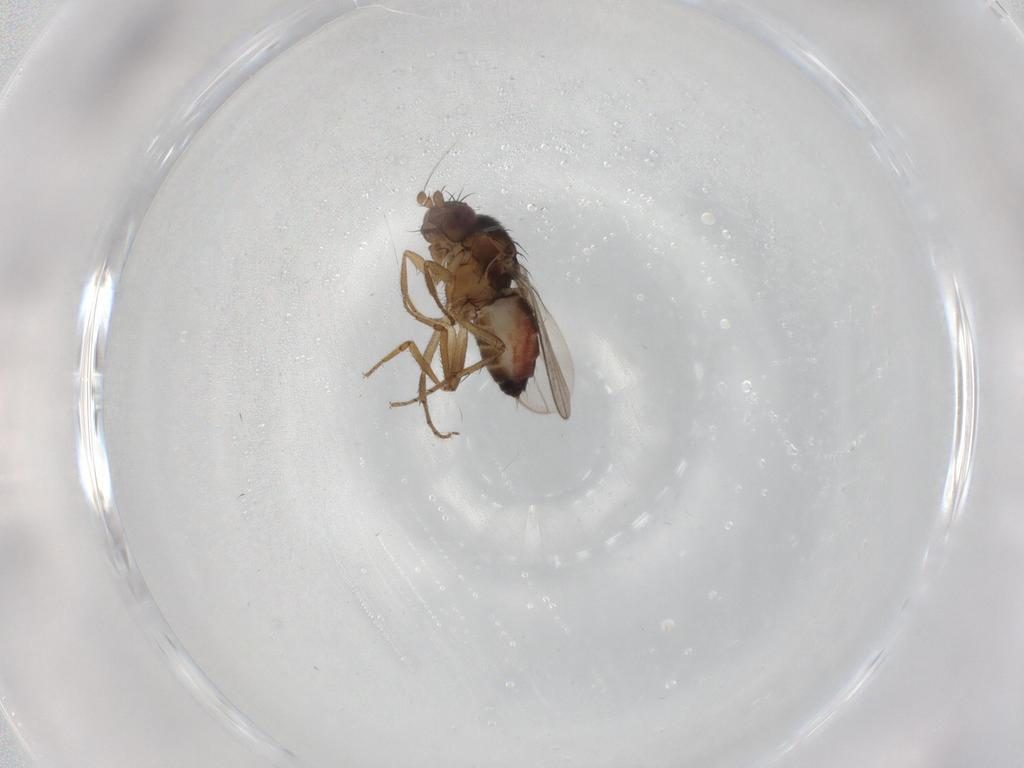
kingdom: Animalia
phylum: Arthropoda
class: Insecta
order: Diptera
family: Sphaeroceridae
